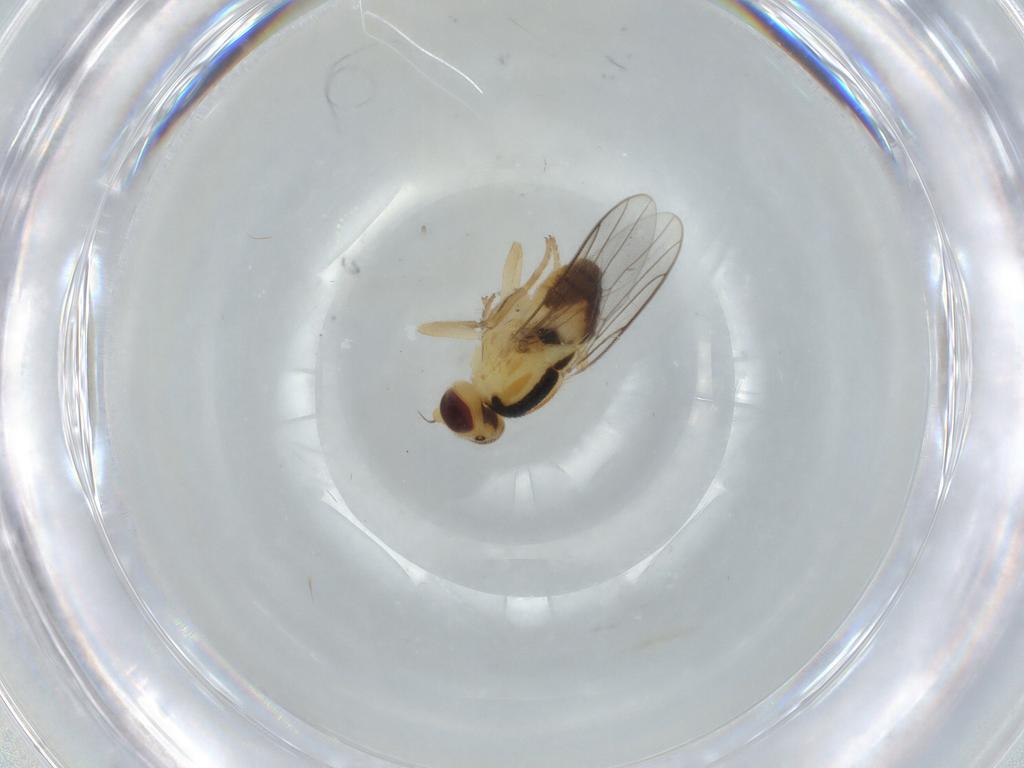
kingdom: Animalia
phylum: Arthropoda
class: Insecta
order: Diptera
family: Chloropidae
